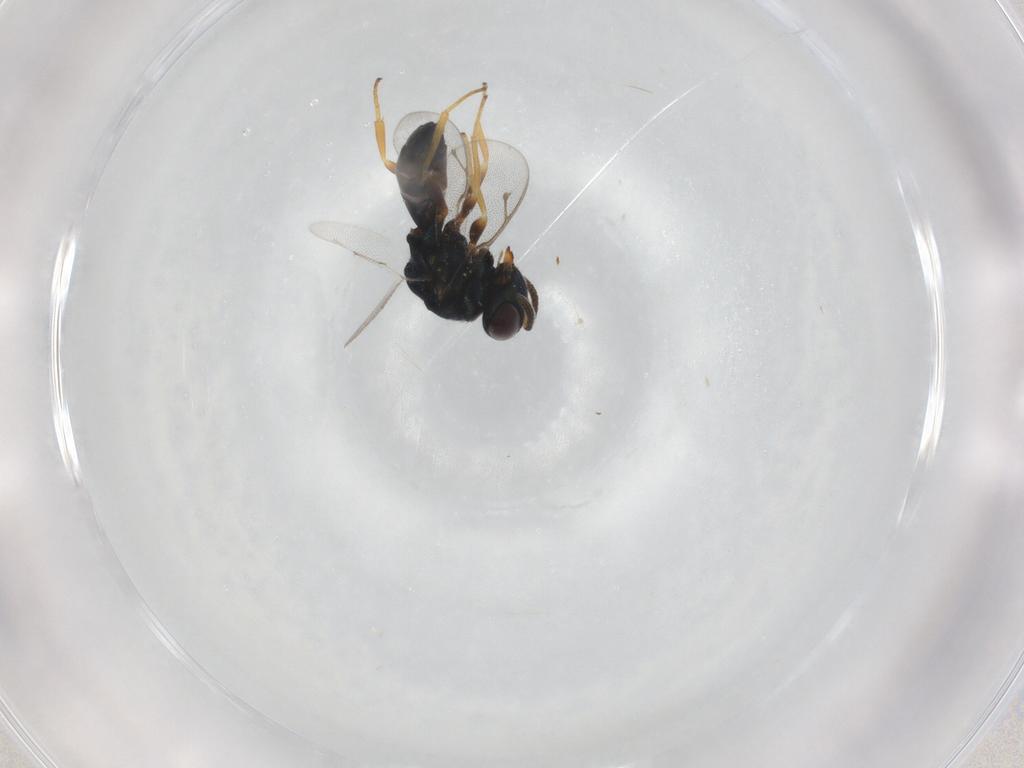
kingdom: Animalia
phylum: Arthropoda
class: Insecta
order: Hymenoptera
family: Pteromalidae
